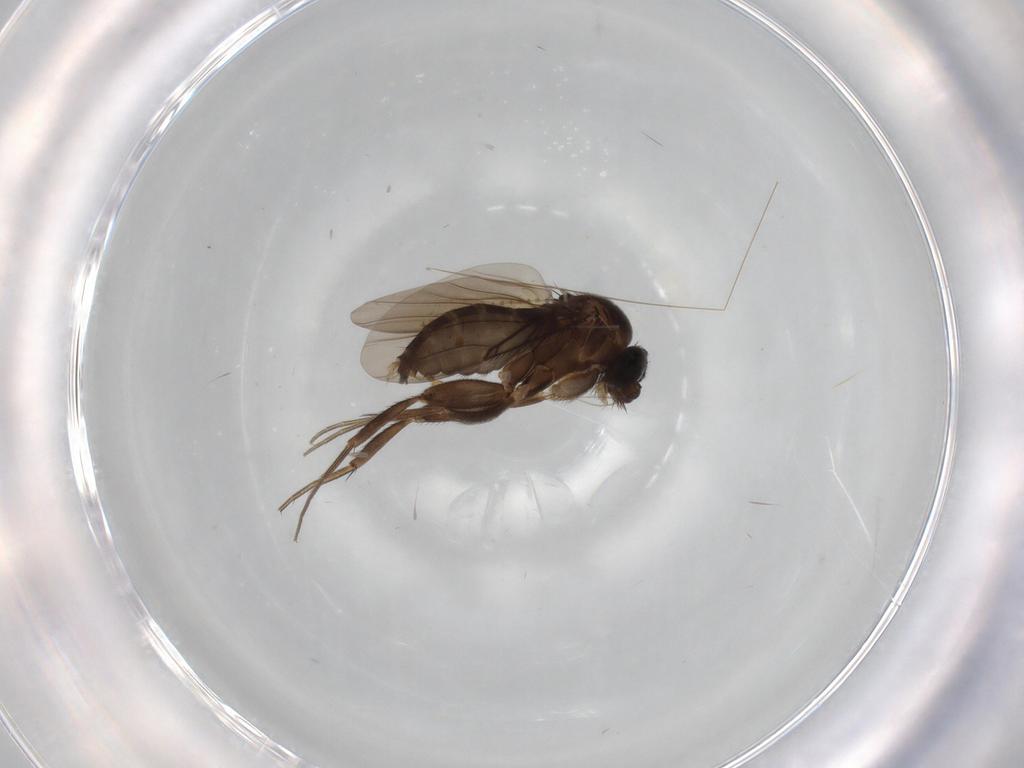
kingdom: Animalia
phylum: Arthropoda
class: Insecta
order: Diptera
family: Phoridae
